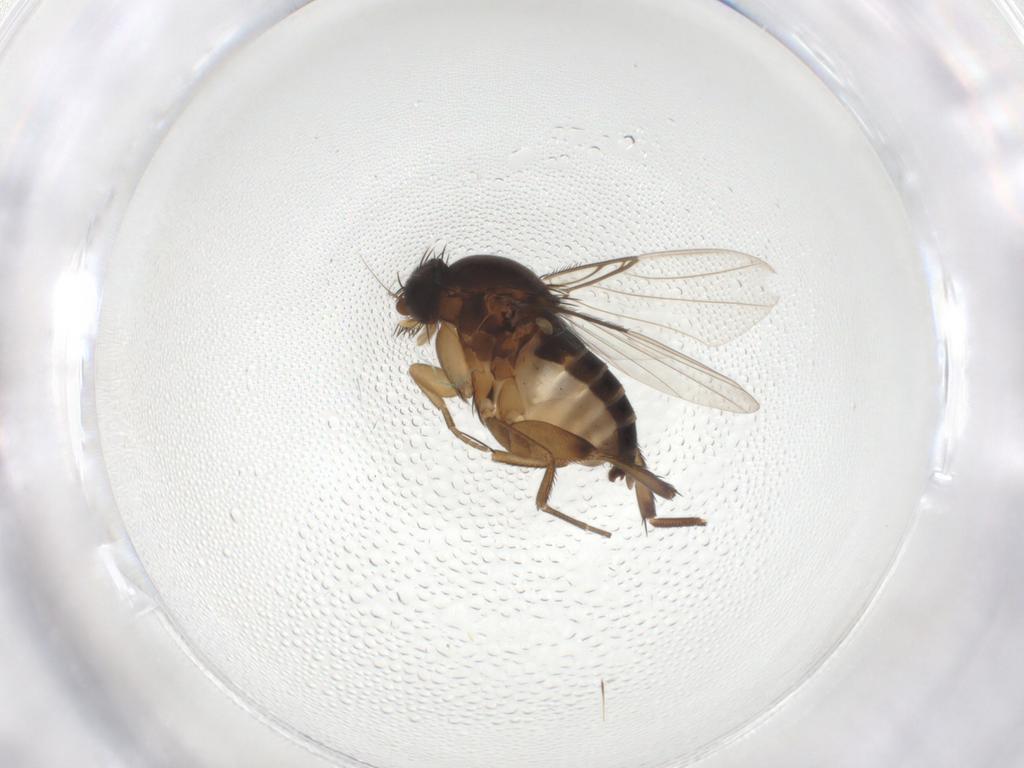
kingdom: Animalia
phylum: Arthropoda
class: Insecta
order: Diptera
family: Phoridae
